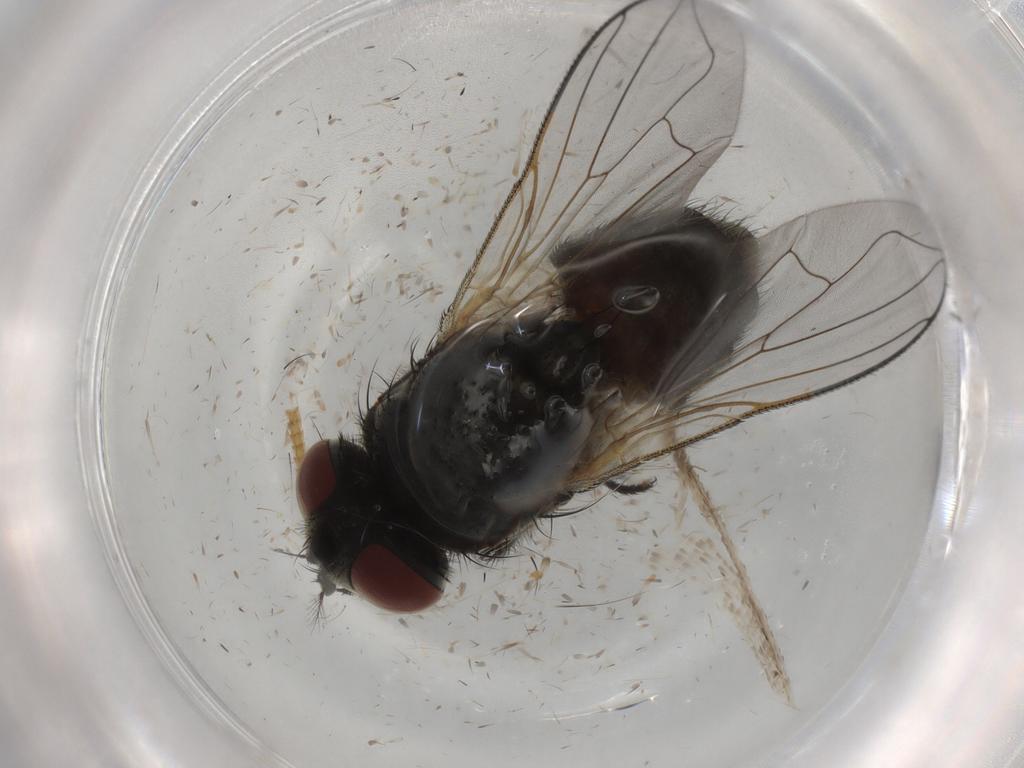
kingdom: Animalia
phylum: Arthropoda
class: Insecta
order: Diptera
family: Muscidae
